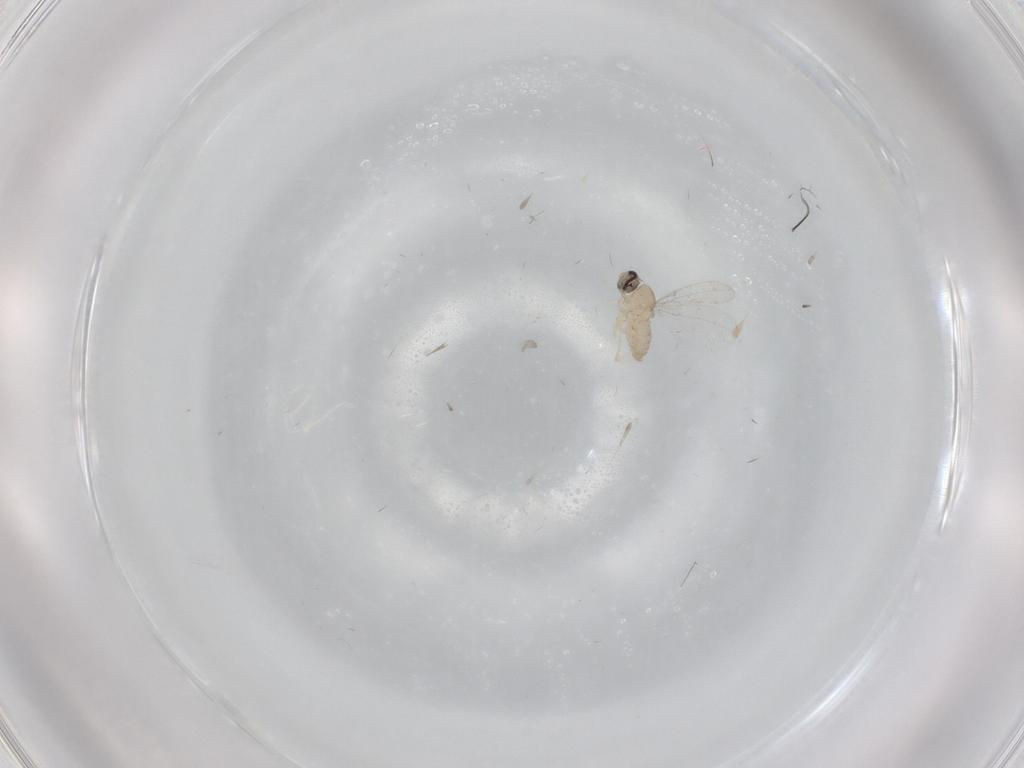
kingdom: Animalia
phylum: Arthropoda
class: Insecta
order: Diptera
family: Cecidomyiidae
